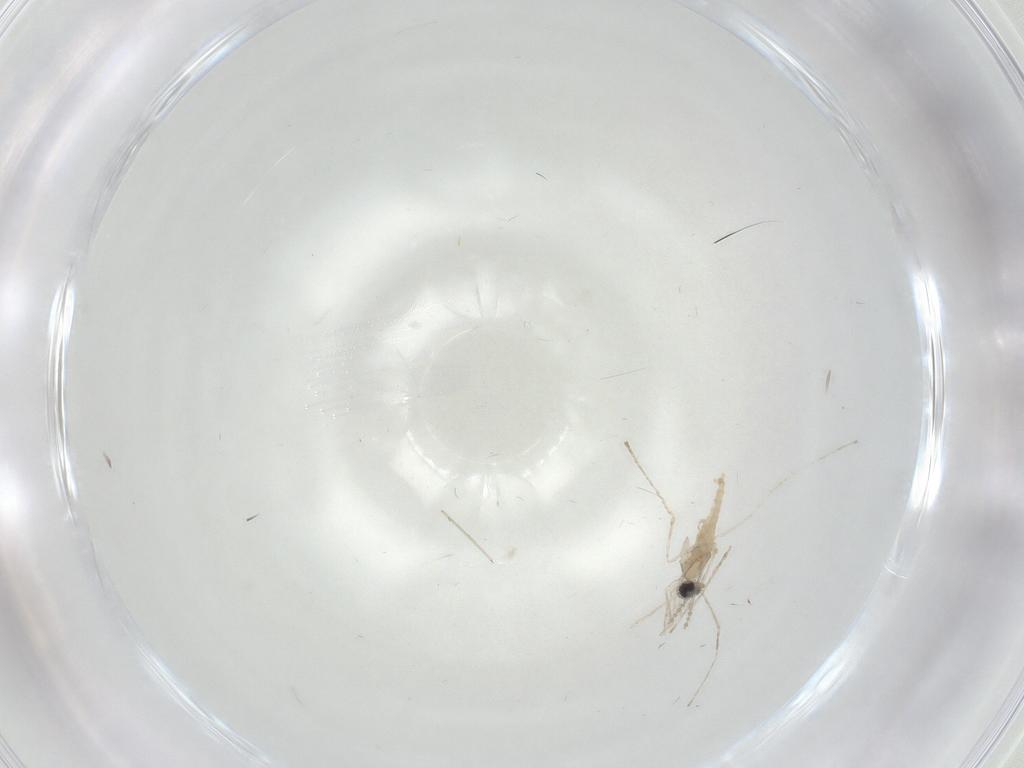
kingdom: Animalia
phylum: Arthropoda
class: Insecta
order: Diptera
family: Cecidomyiidae
